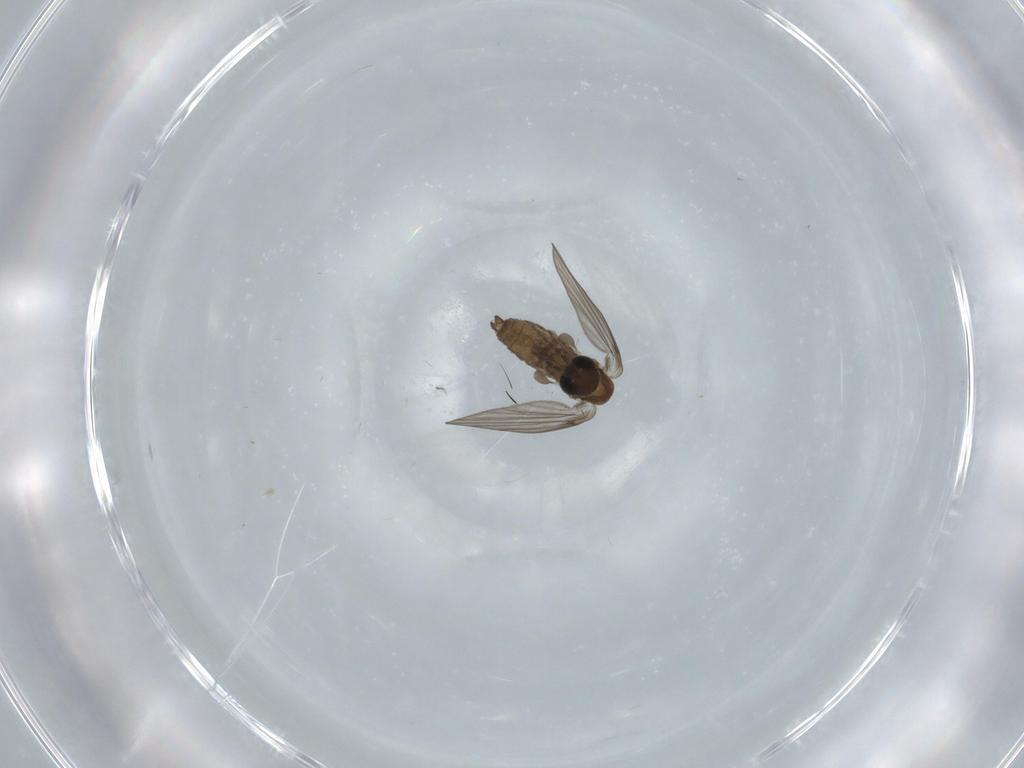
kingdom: Animalia
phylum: Arthropoda
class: Insecta
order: Diptera
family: Psychodidae
